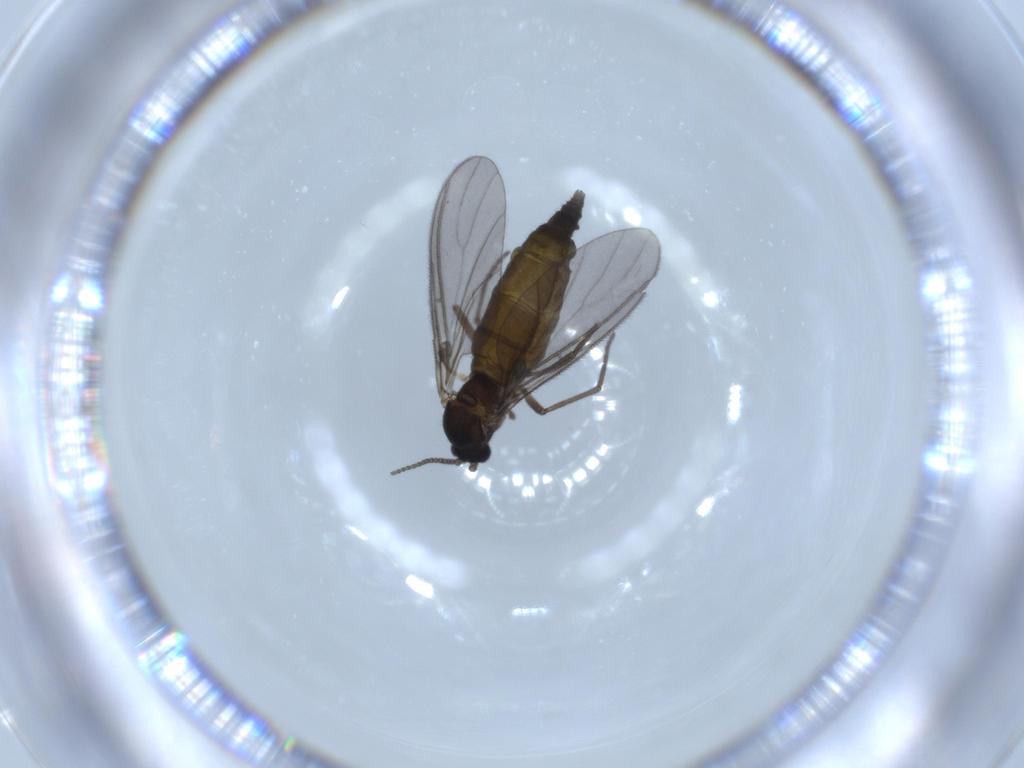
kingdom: Animalia
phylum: Arthropoda
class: Insecta
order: Diptera
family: Sciaridae
